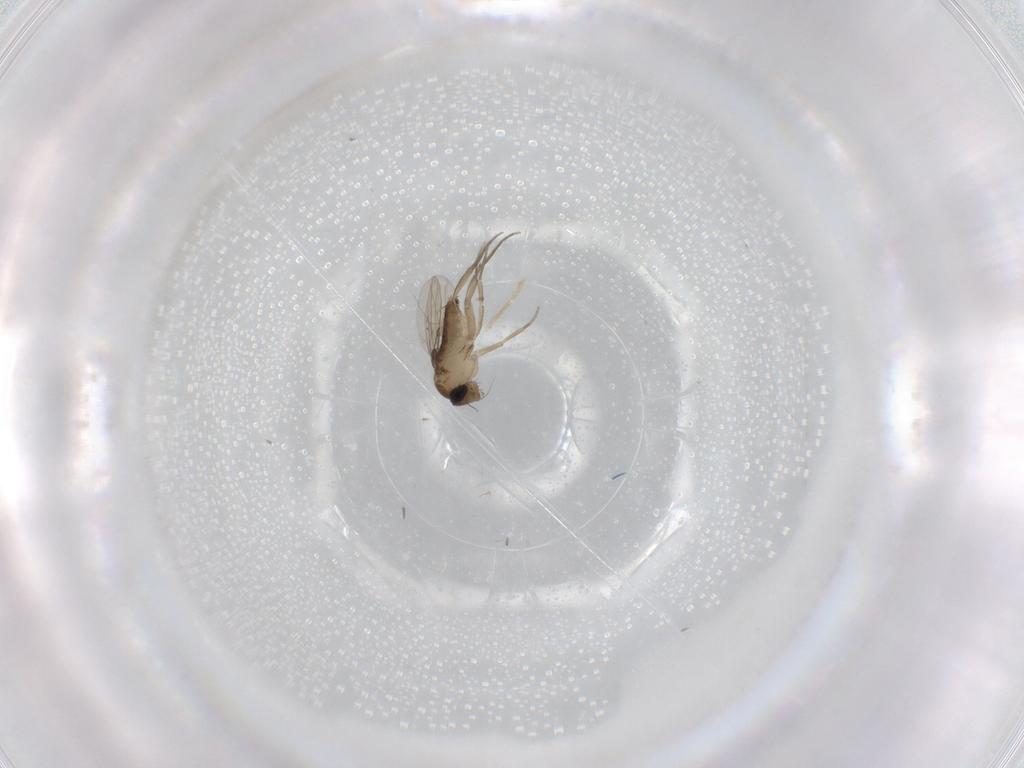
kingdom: Animalia
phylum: Arthropoda
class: Insecta
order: Diptera
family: Phoridae
